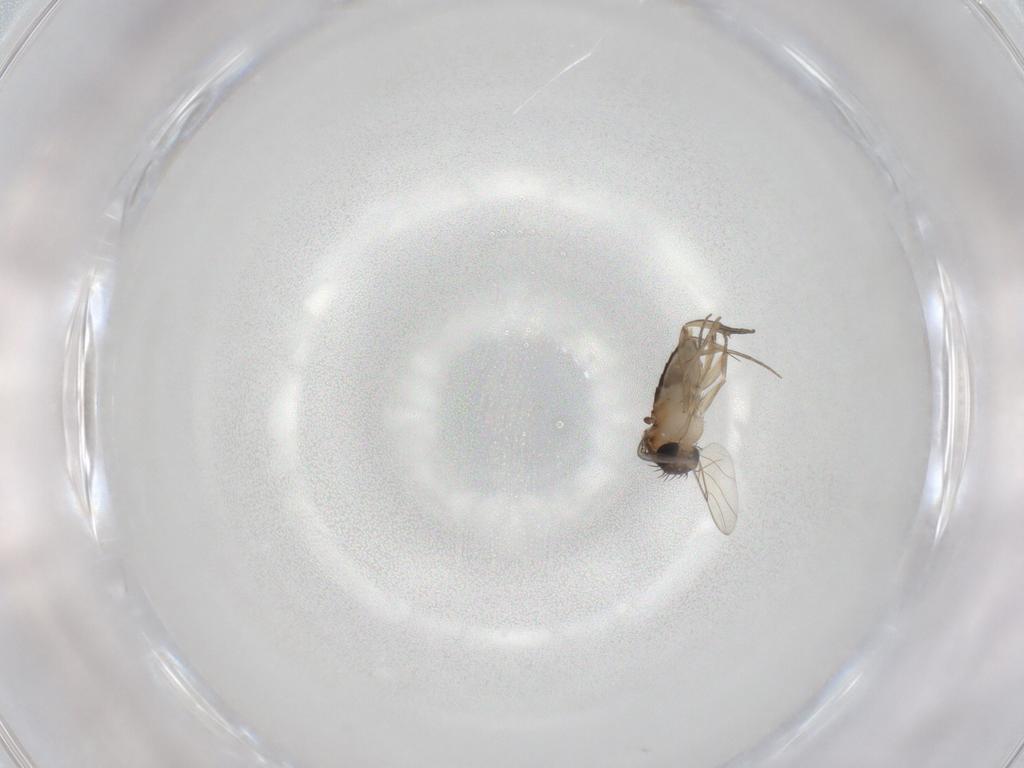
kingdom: Animalia
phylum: Arthropoda
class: Insecta
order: Diptera
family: Phoridae
